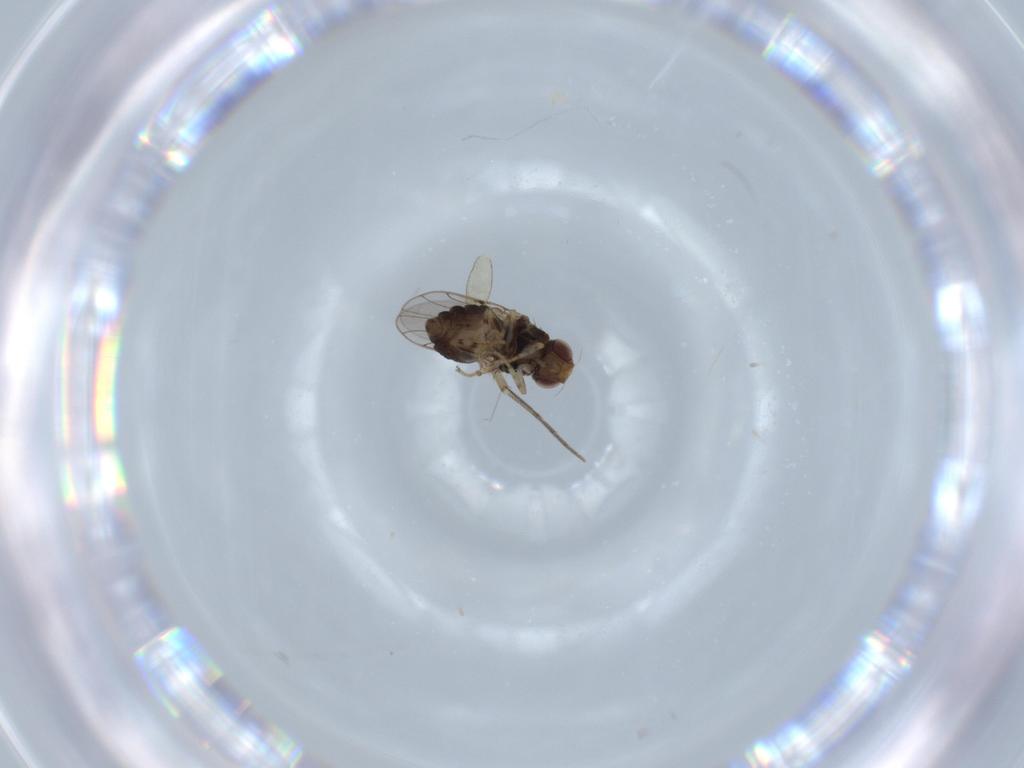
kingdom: Animalia
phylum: Arthropoda
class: Insecta
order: Diptera
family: Chloropidae
